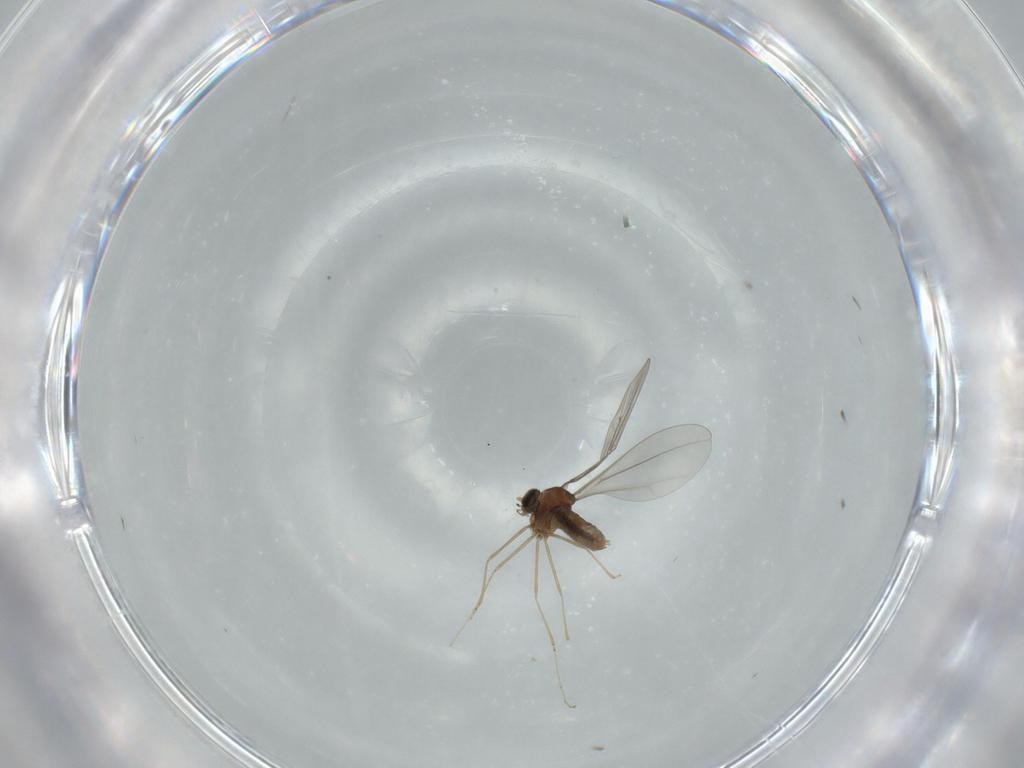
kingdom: Animalia
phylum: Arthropoda
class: Insecta
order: Diptera
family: Cecidomyiidae
